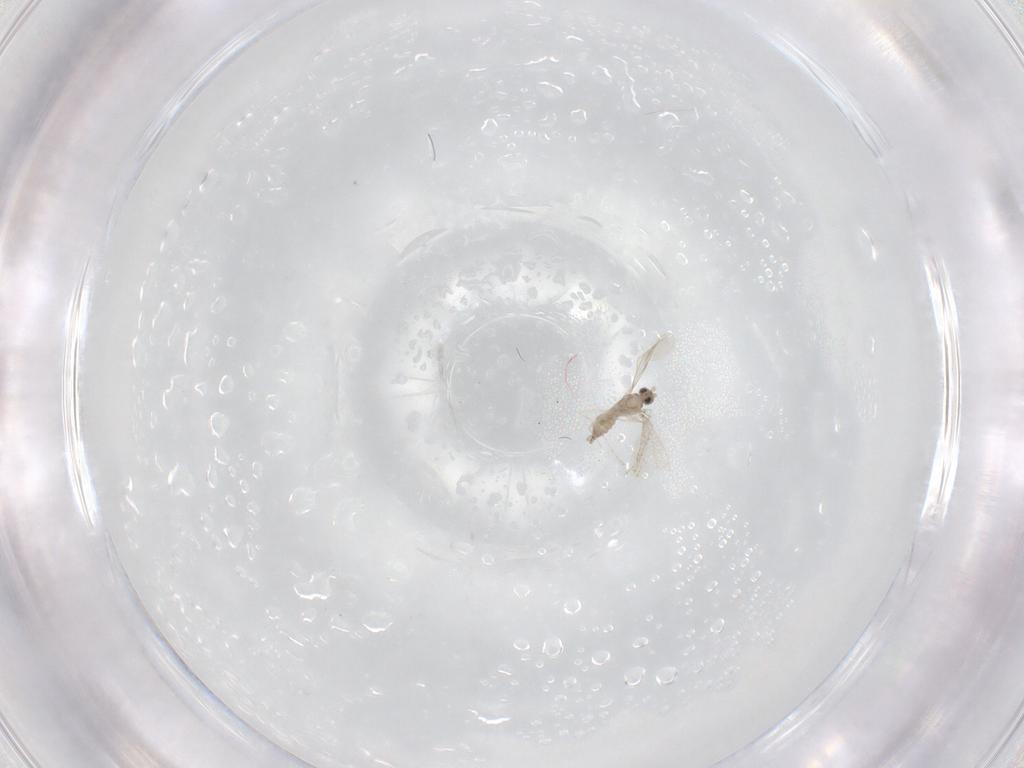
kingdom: Animalia
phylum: Arthropoda
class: Insecta
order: Diptera
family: Cecidomyiidae
